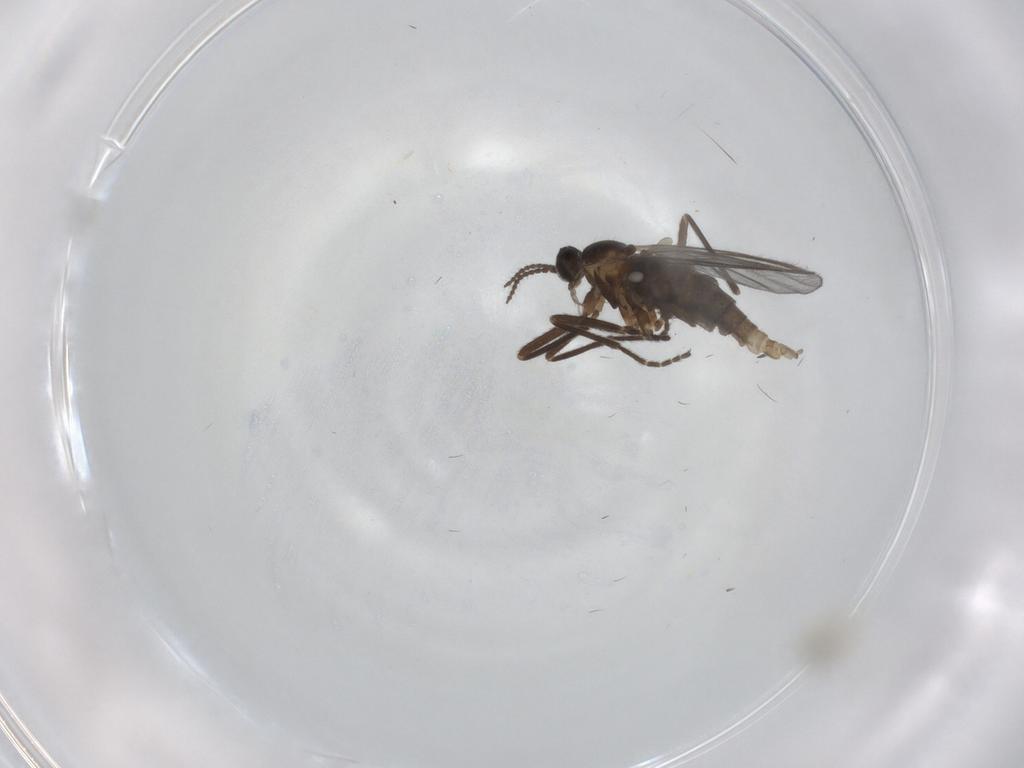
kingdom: Animalia
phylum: Arthropoda
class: Insecta
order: Diptera
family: Cecidomyiidae
